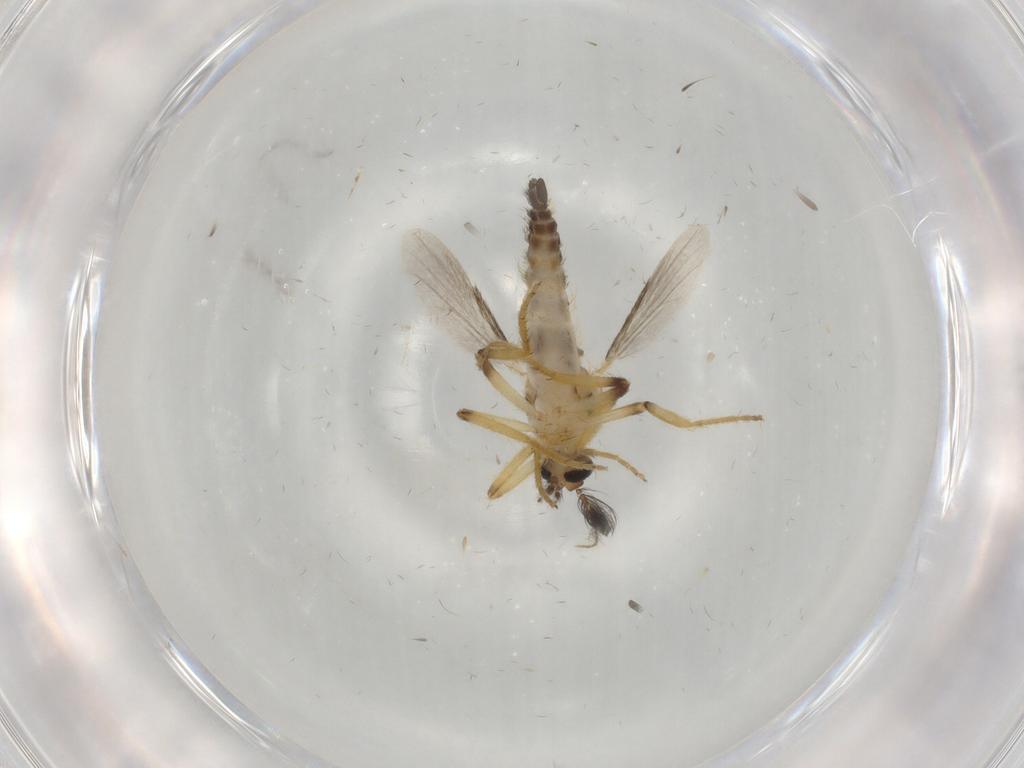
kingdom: Animalia
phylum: Arthropoda
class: Insecta
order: Diptera
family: Ceratopogonidae
